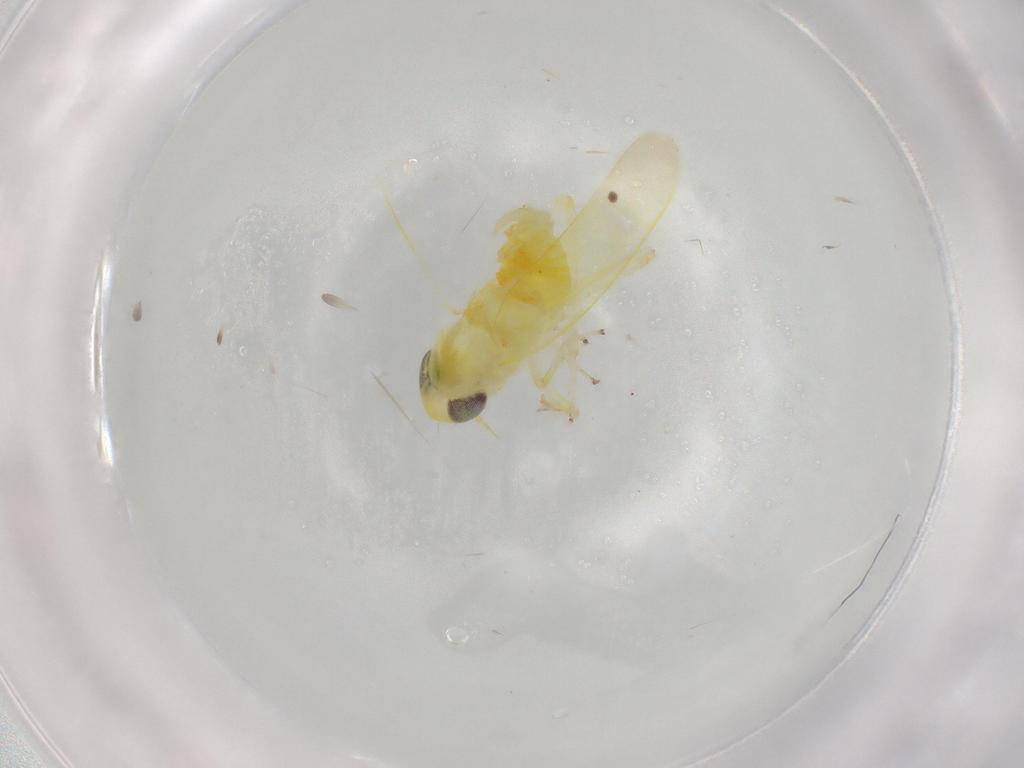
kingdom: Animalia
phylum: Arthropoda
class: Insecta
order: Hemiptera
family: Cicadellidae
